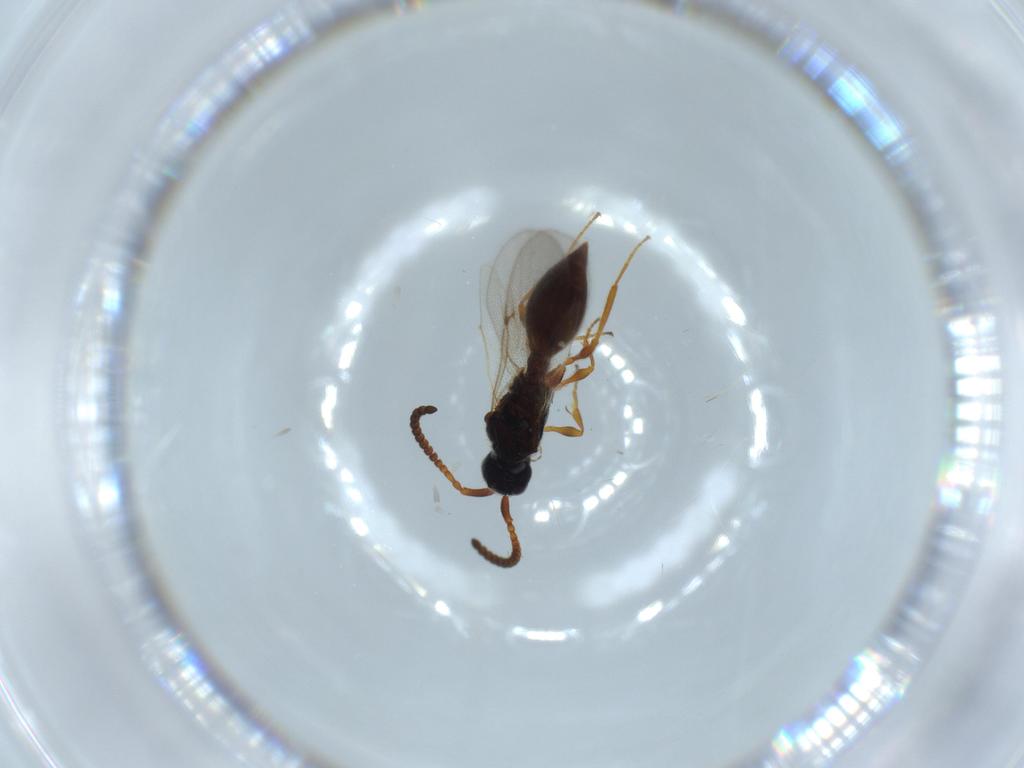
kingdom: Animalia
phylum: Arthropoda
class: Insecta
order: Hymenoptera
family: Diapriidae
